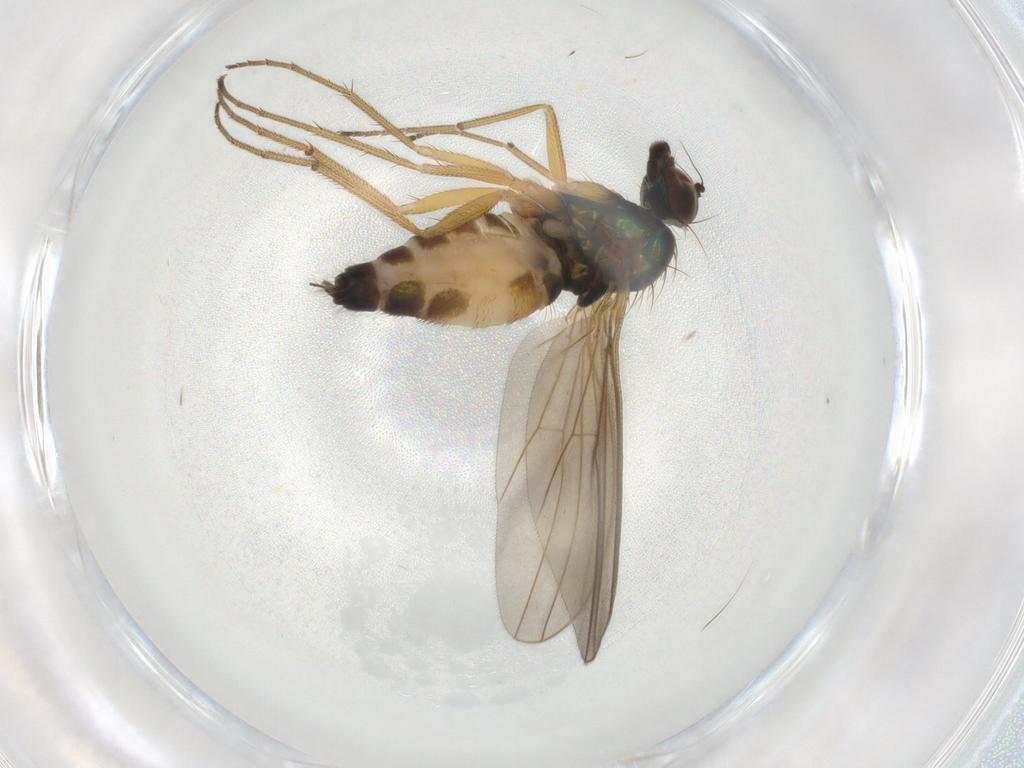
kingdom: Animalia
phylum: Arthropoda
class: Insecta
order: Diptera
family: Dolichopodidae
